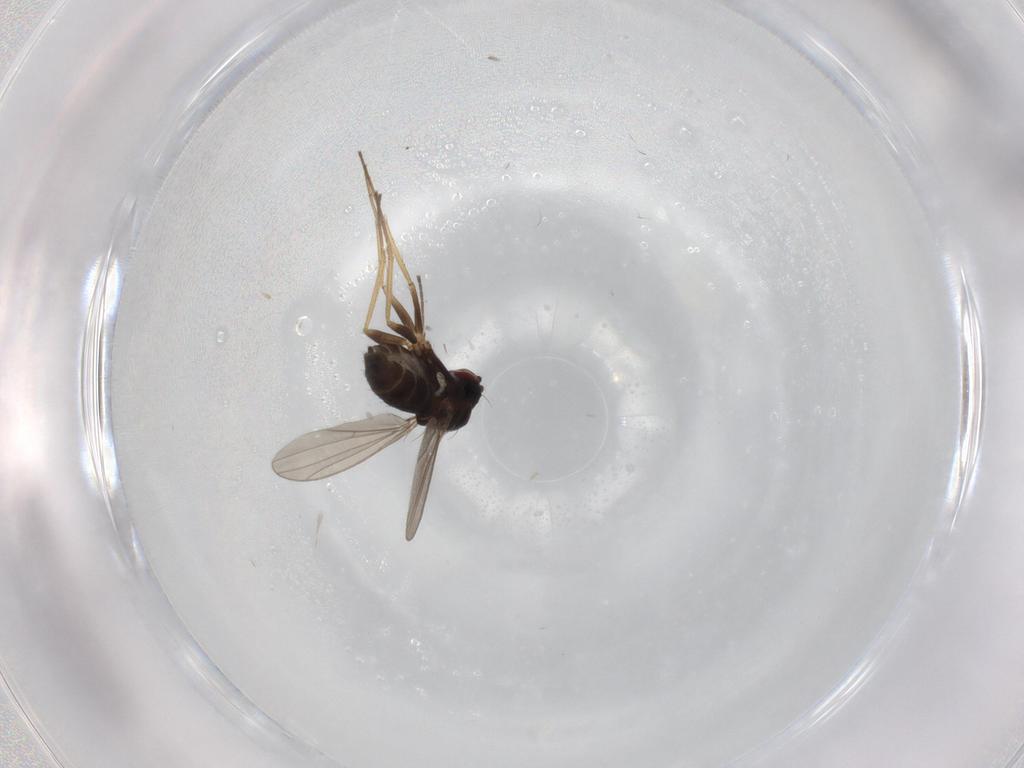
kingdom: Animalia
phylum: Arthropoda
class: Insecta
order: Diptera
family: Dolichopodidae
